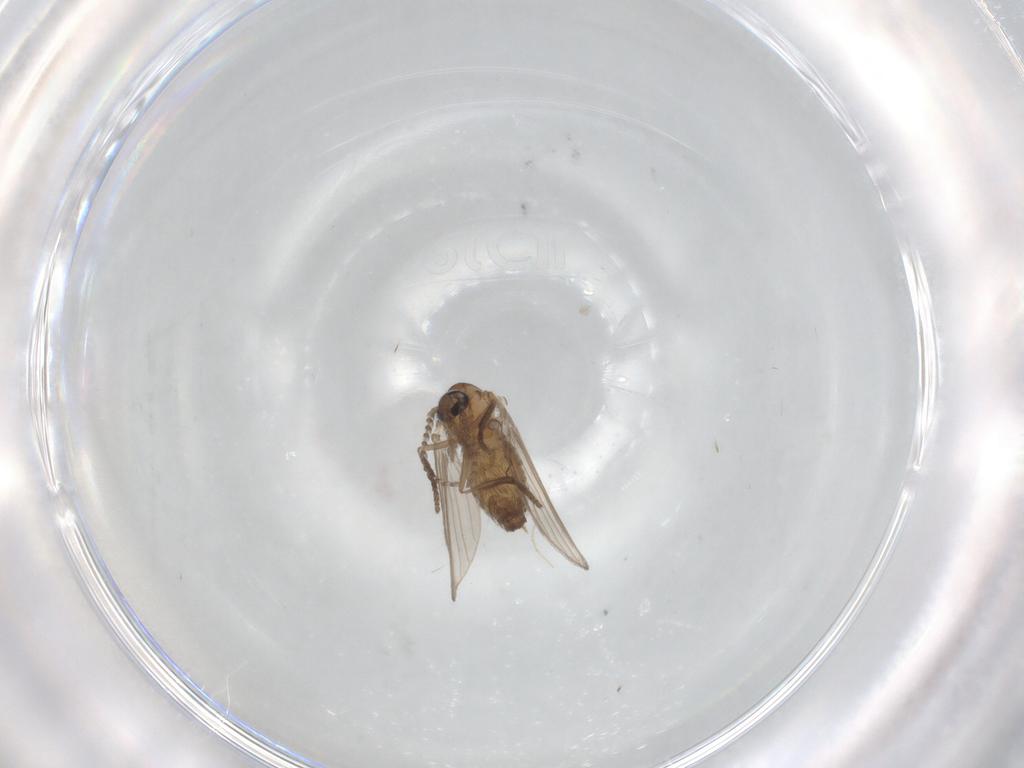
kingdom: Animalia
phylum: Arthropoda
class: Insecta
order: Diptera
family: Psychodidae
